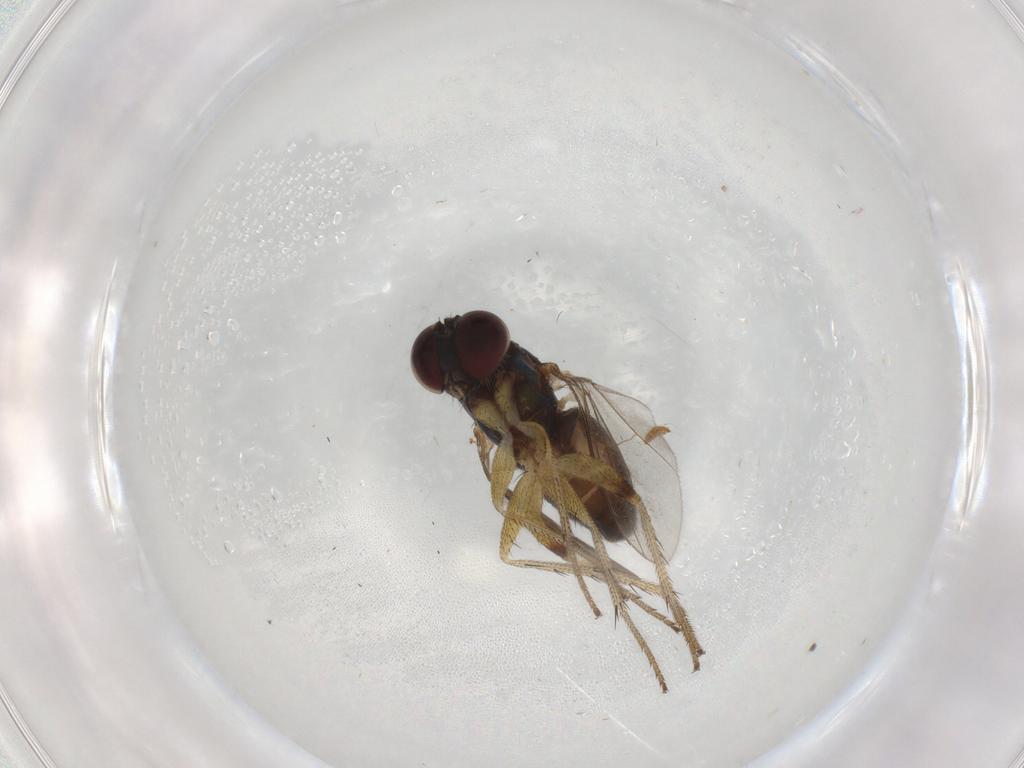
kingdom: Animalia
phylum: Arthropoda
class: Insecta
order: Diptera
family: Dolichopodidae
